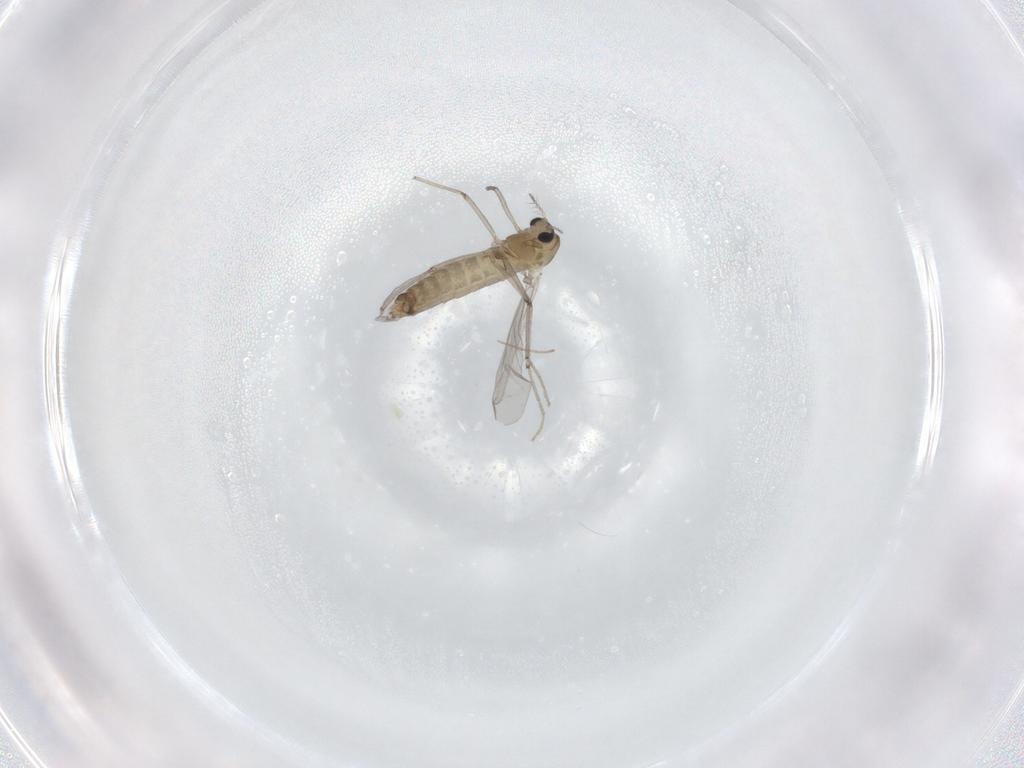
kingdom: Animalia
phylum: Arthropoda
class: Insecta
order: Diptera
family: Chironomidae
